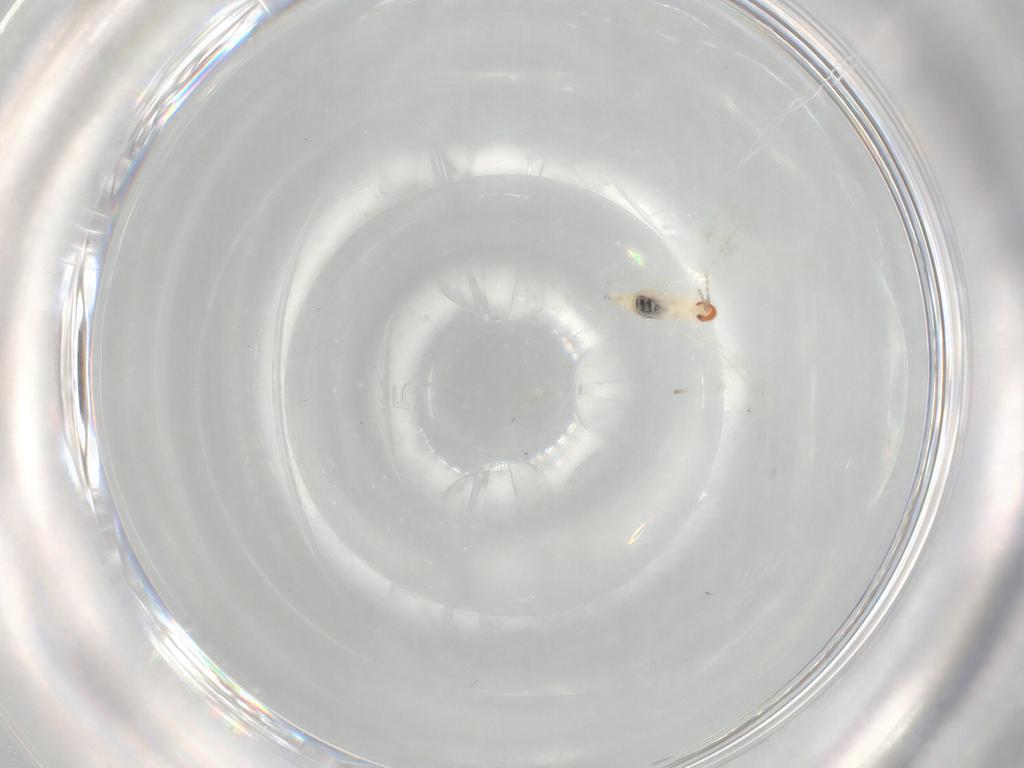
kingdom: Animalia
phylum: Arthropoda
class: Insecta
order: Diptera
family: Cecidomyiidae
